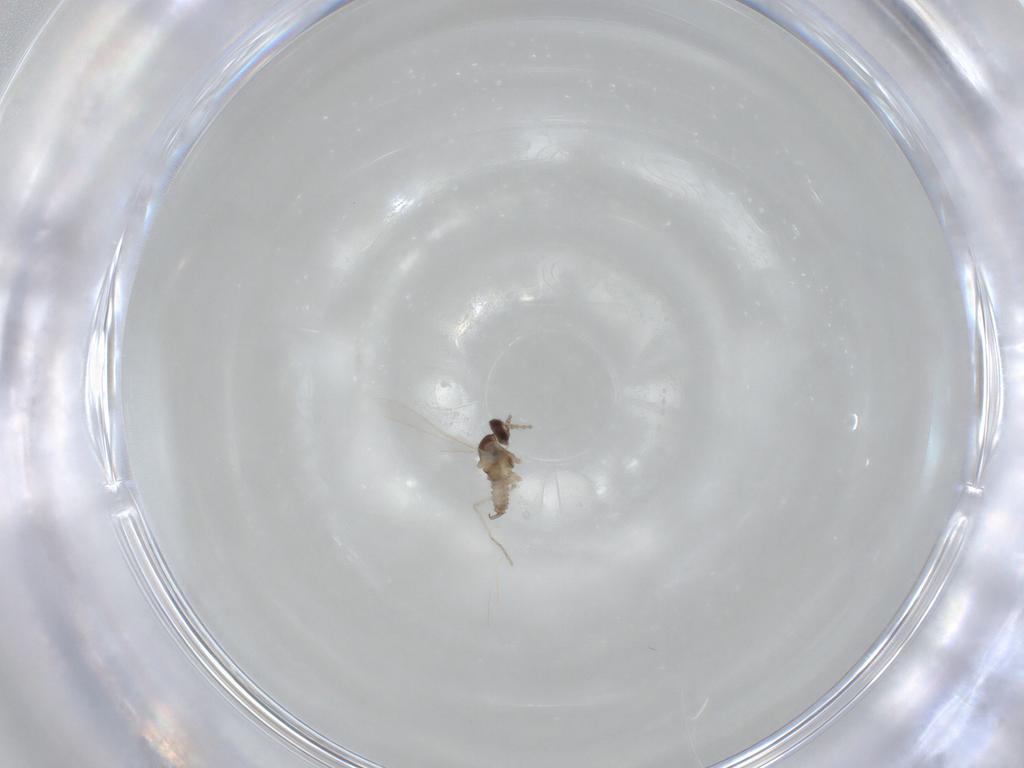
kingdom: Animalia
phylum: Arthropoda
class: Insecta
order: Diptera
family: Cecidomyiidae
